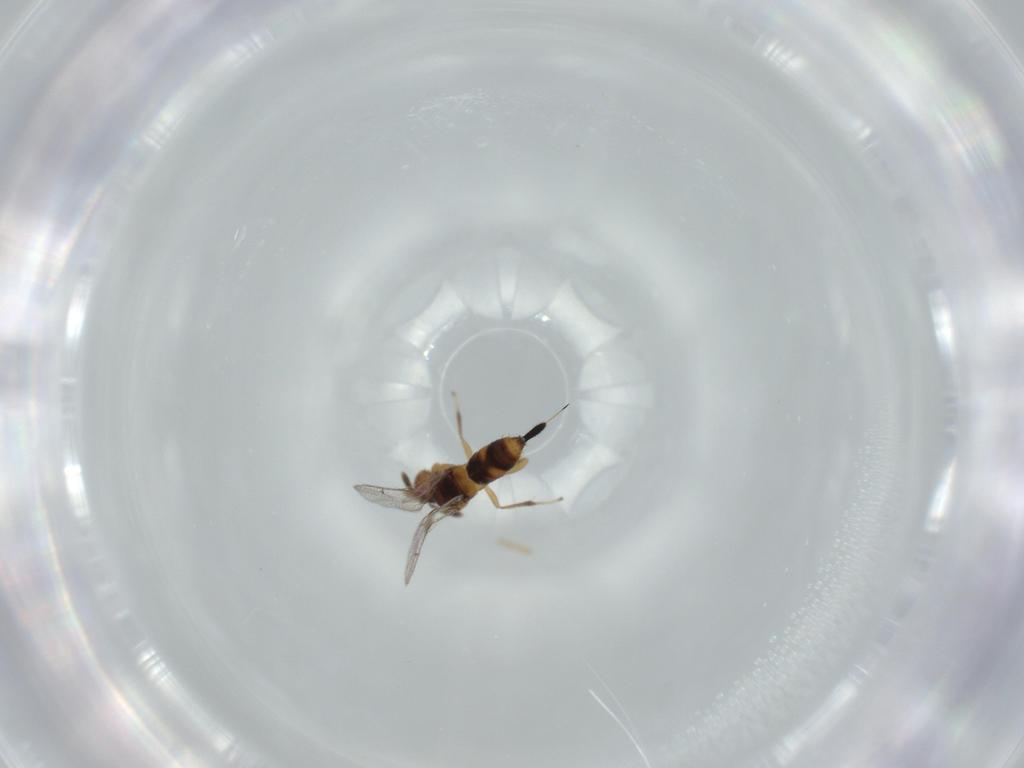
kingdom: Animalia
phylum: Arthropoda
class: Insecta
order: Hymenoptera
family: Torymidae
